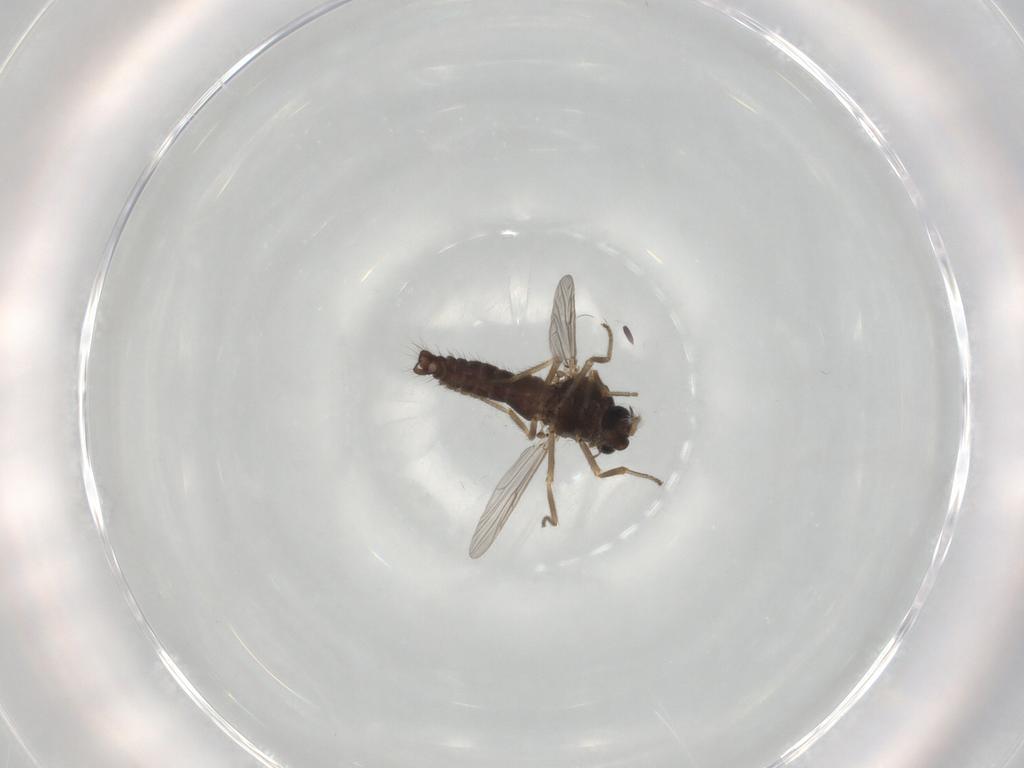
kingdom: Animalia
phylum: Arthropoda
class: Insecta
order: Diptera
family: Ceratopogonidae
